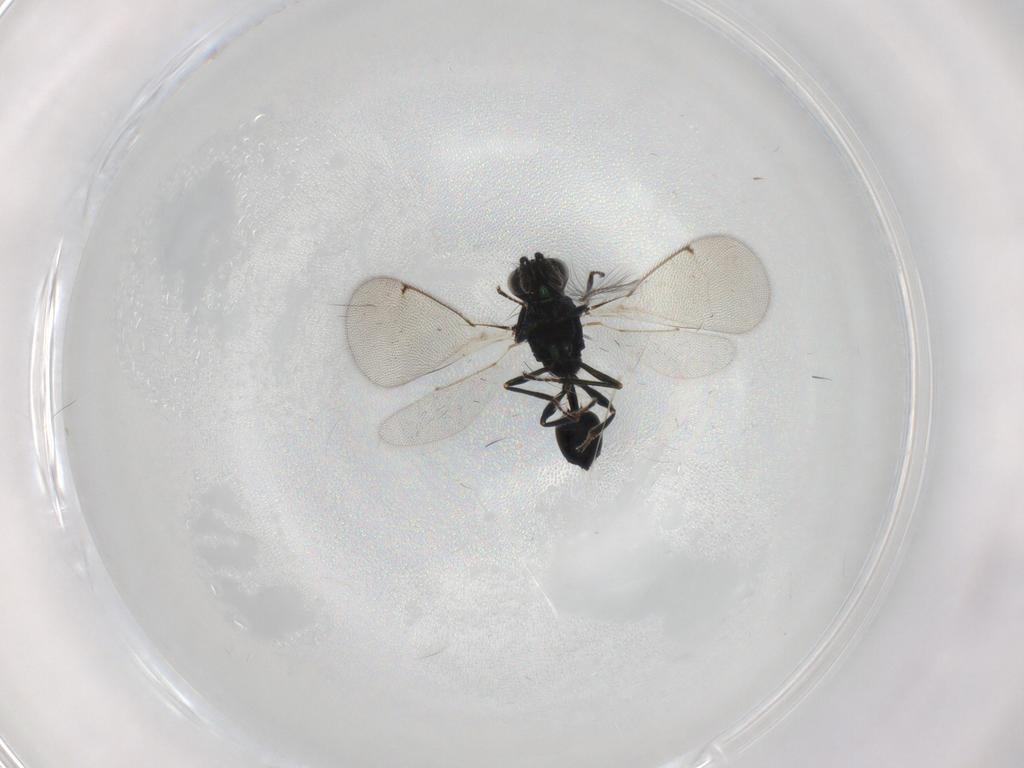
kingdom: Animalia
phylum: Arthropoda
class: Insecta
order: Hymenoptera
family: Eulophidae
